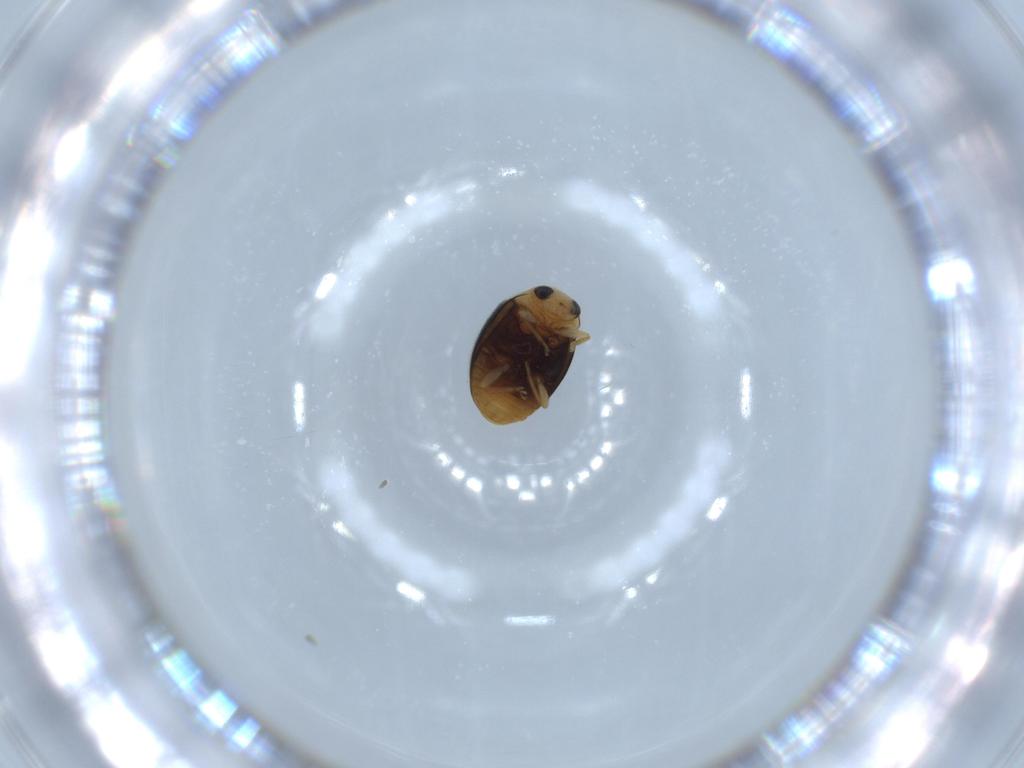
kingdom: Animalia
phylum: Arthropoda
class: Insecta
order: Coleoptera
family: Coccinellidae
